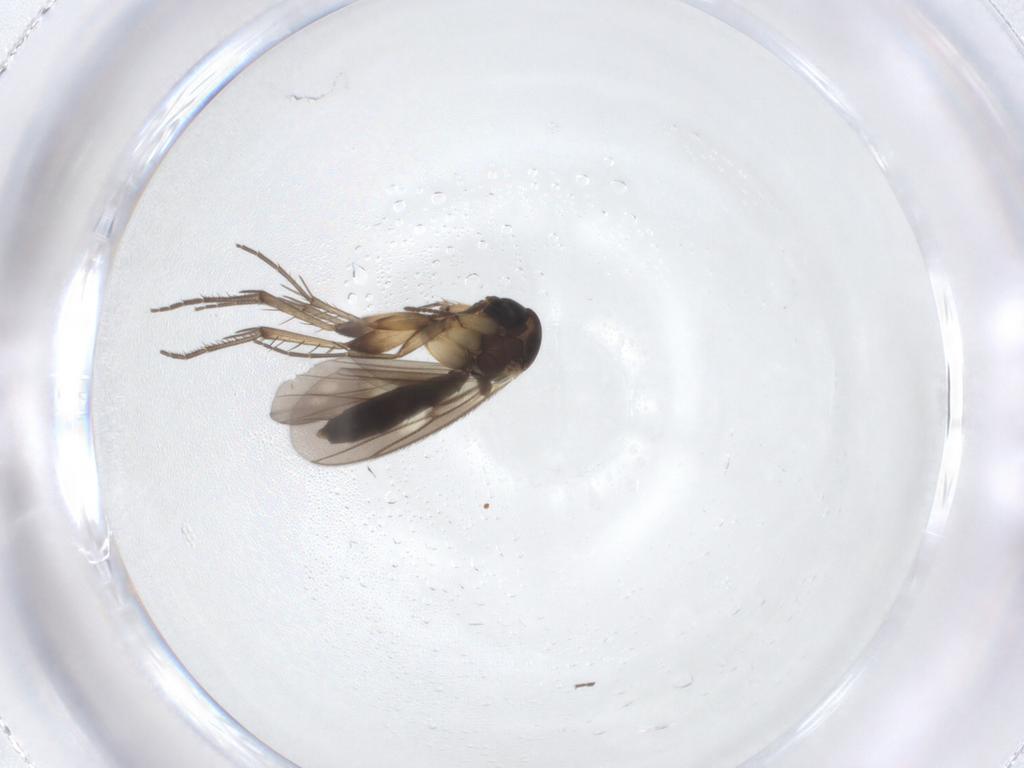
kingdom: Animalia
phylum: Arthropoda
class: Insecta
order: Diptera
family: Mycetophilidae
